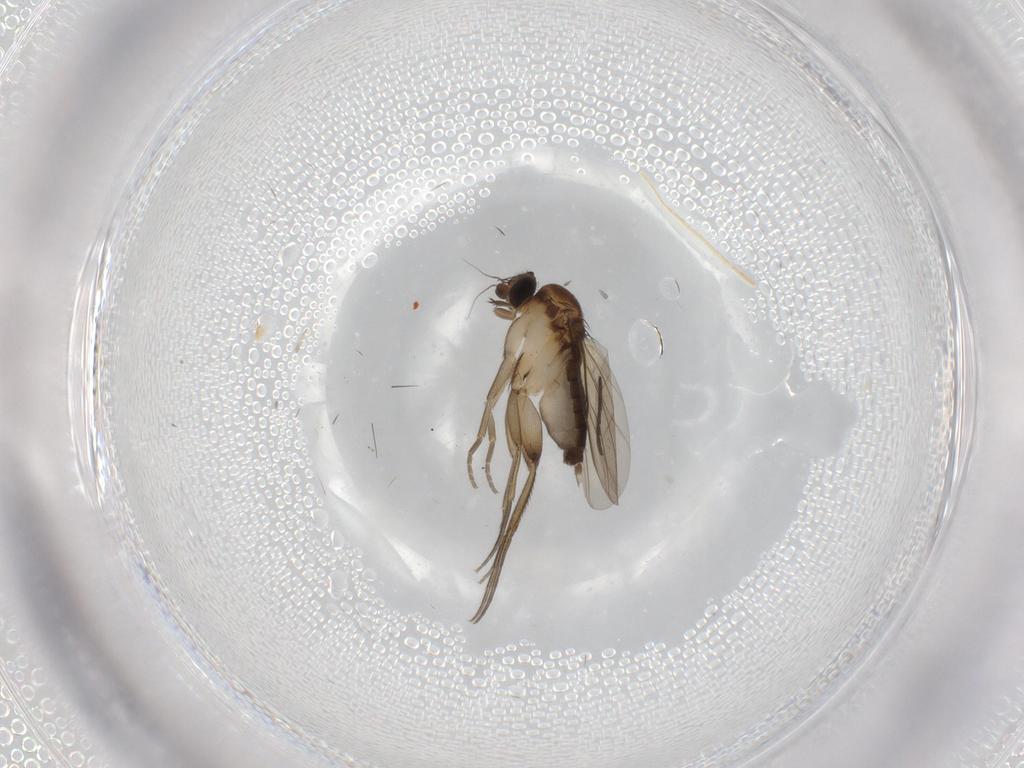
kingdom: Animalia
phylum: Arthropoda
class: Insecta
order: Diptera
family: Phoridae
